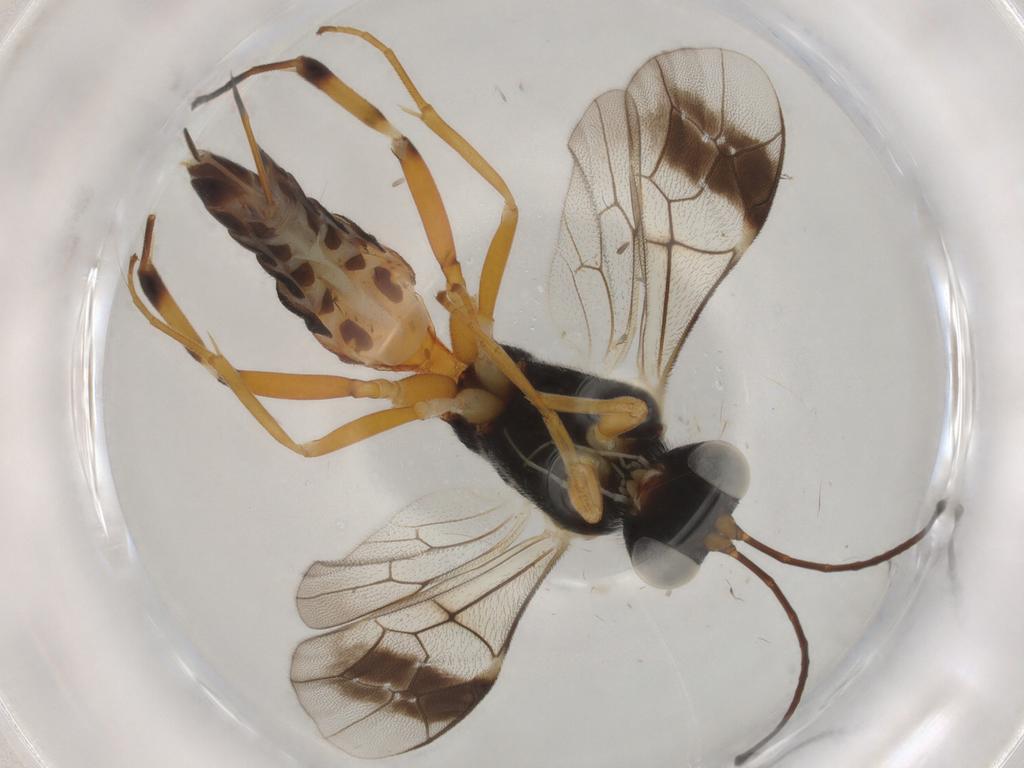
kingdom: Animalia
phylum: Arthropoda
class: Insecta
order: Hymenoptera
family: Ichneumonidae
